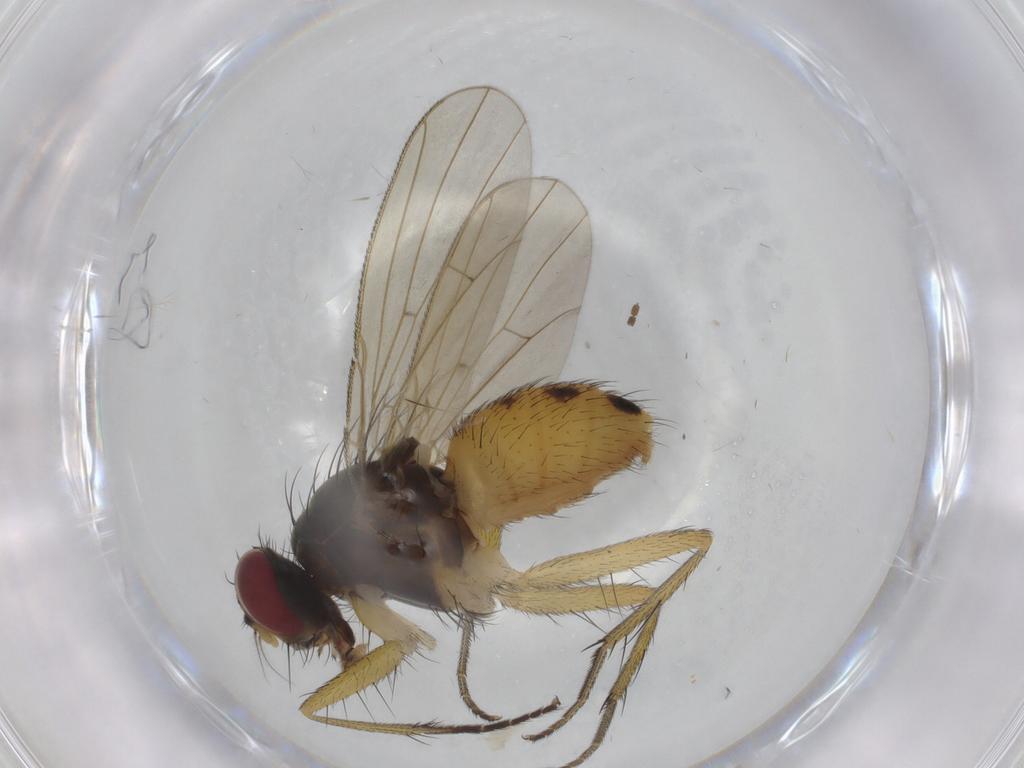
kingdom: Animalia
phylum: Arthropoda
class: Insecta
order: Diptera
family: Muscidae
